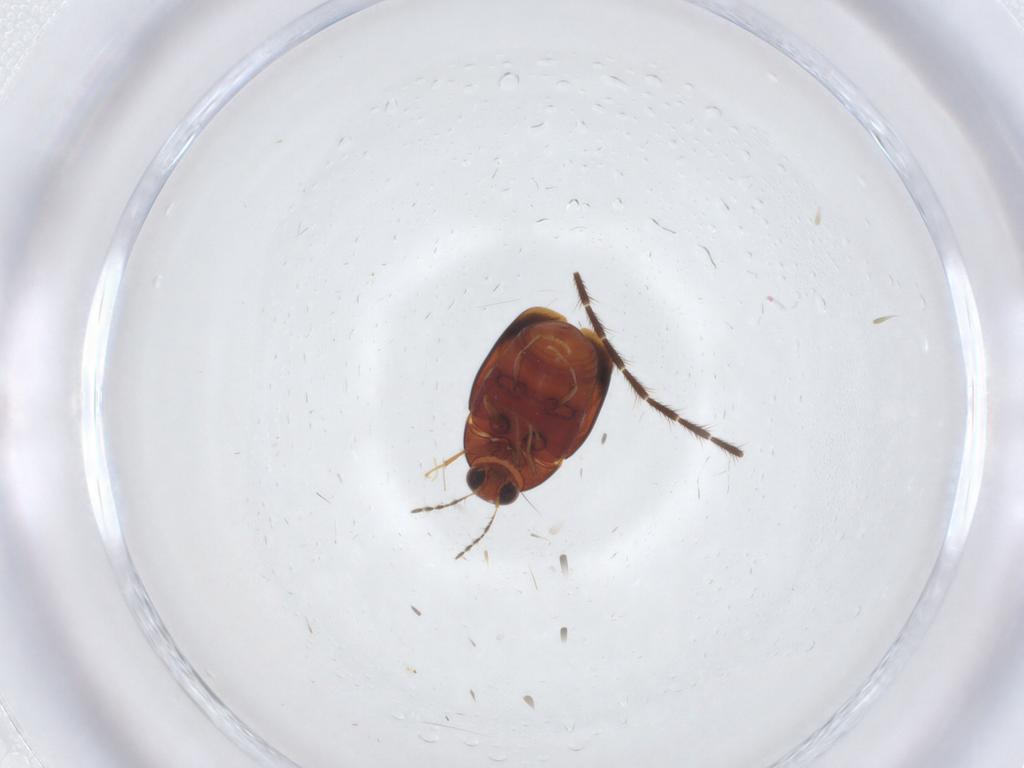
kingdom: Animalia
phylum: Arthropoda
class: Insecta
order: Coleoptera
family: Staphylinidae
